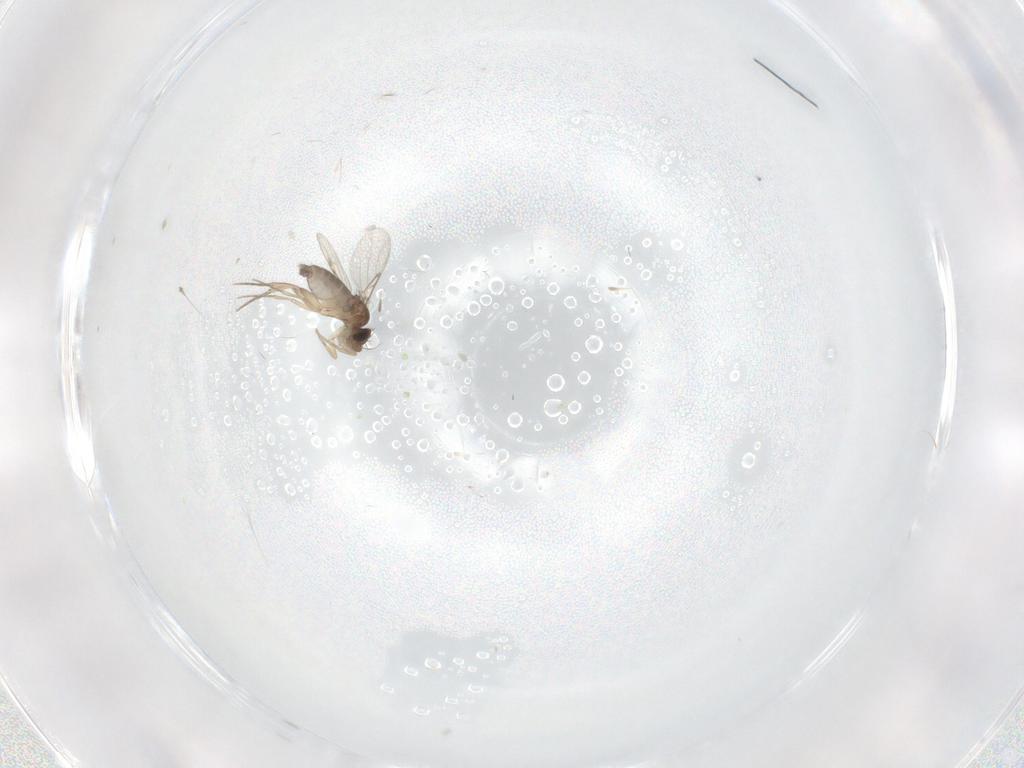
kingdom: Animalia
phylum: Arthropoda
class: Insecta
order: Diptera
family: Phoridae
